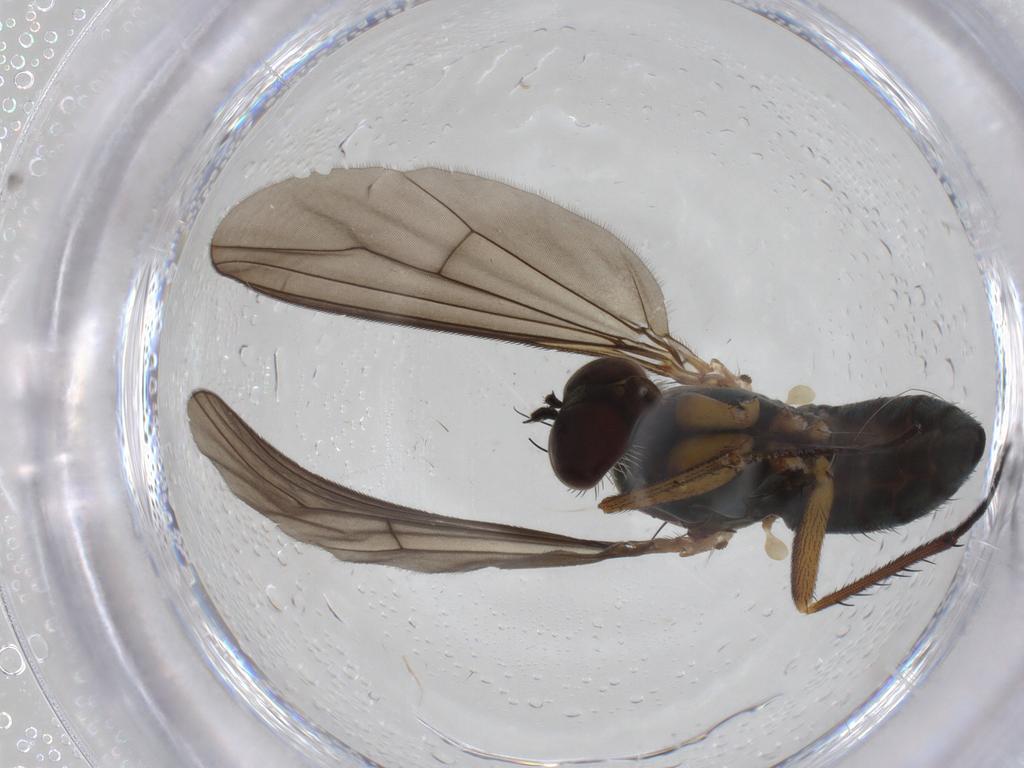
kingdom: Animalia
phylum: Arthropoda
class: Insecta
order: Diptera
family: Dolichopodidae
